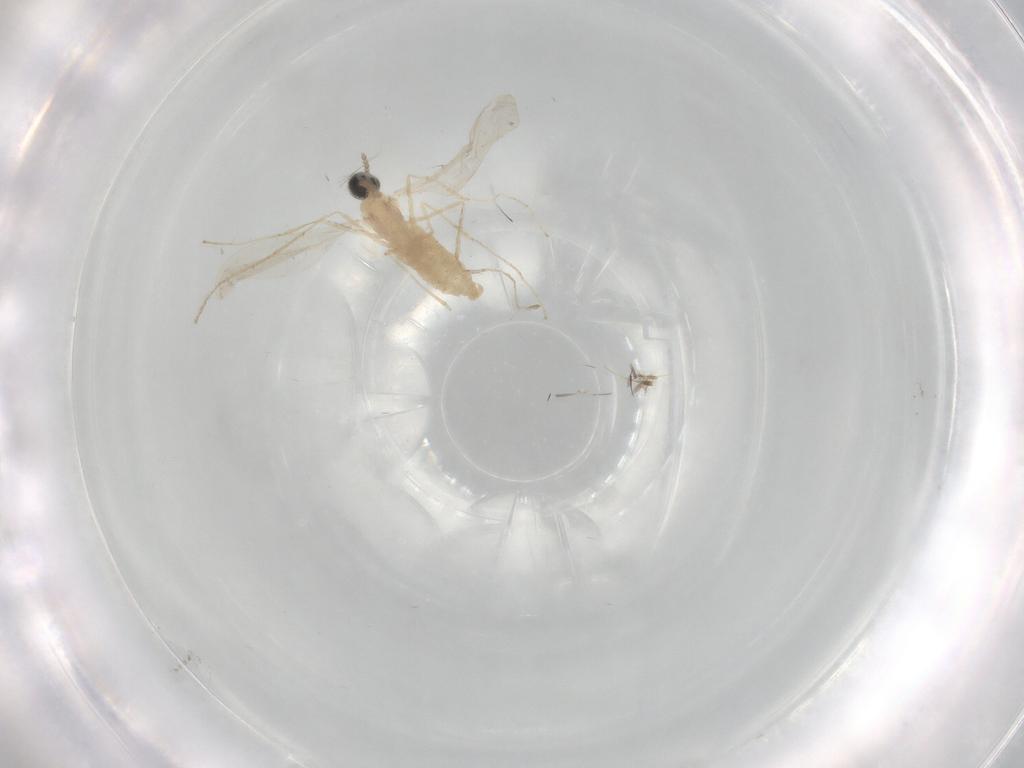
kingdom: Animalia
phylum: Arthropoda
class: Insecta
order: Diptera
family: Cecidomyiidae
